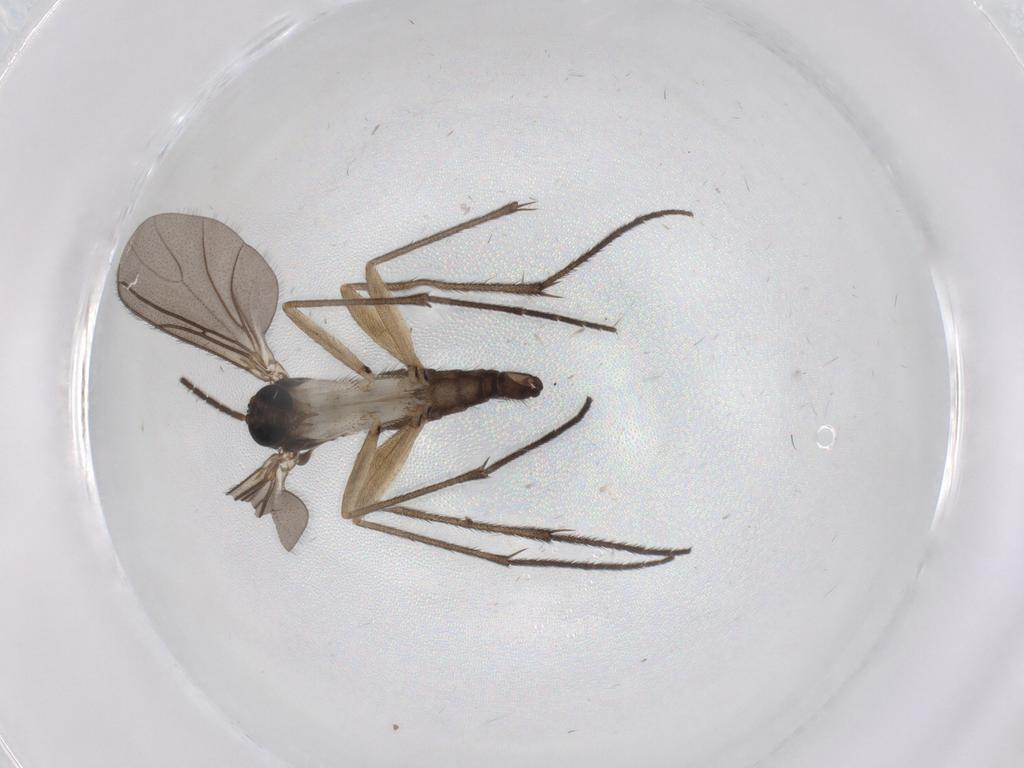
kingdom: Animalia
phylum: Arthropoda
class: Insecta
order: Diptera
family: Sciaridae
